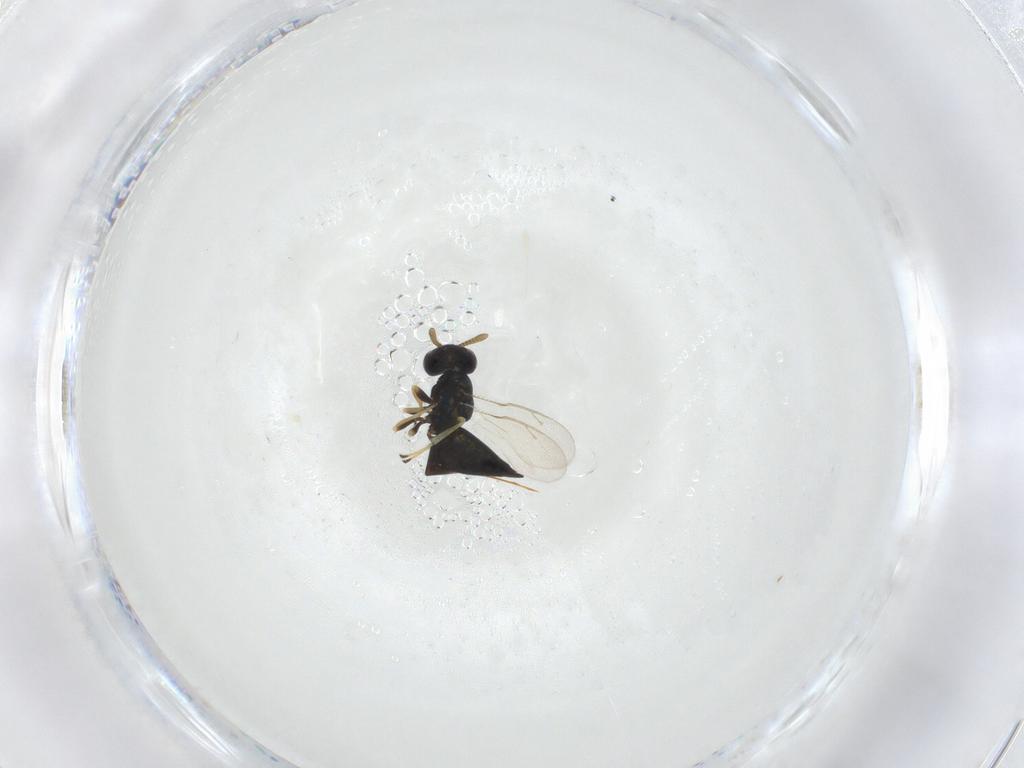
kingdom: Animalia
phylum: Arthropoda
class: Insecta
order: Hymenoptera
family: Pteromalidae
